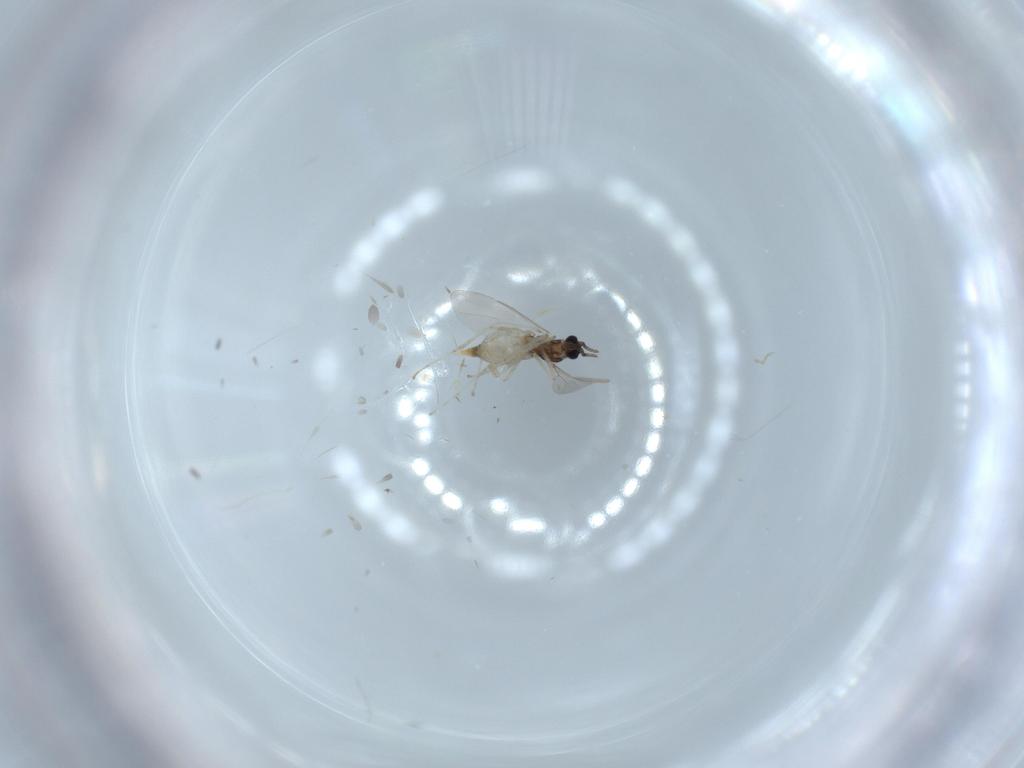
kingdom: Animalia
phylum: Arthropoda
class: Insecta
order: Diptera
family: Cecidomyiidae
